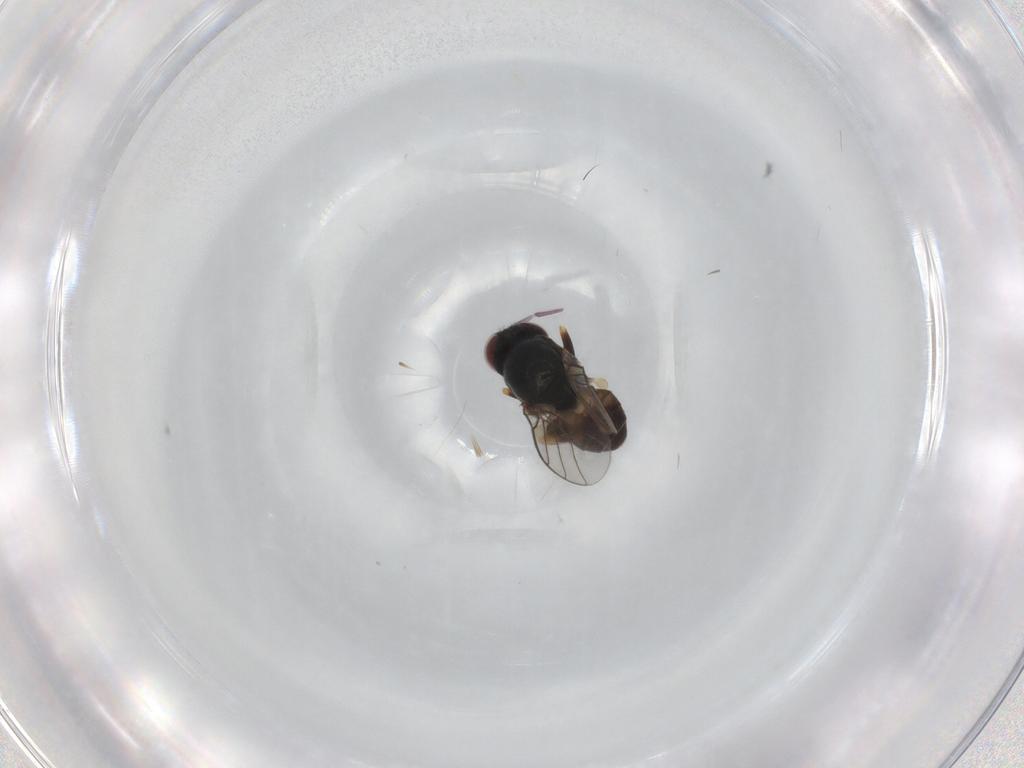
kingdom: Animalia
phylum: Arthropoda
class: Insecta
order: Diptera
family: Chloropidae
